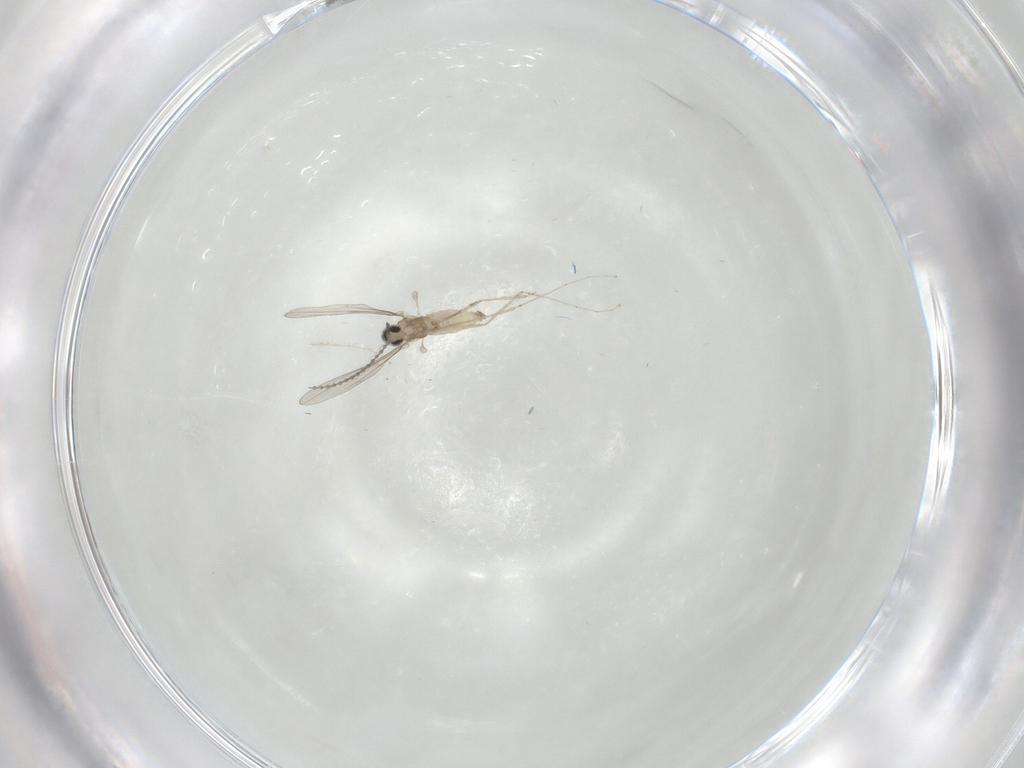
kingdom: Animalia
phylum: Arthropoda
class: Insecta
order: Diptera
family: Cecidomyiidae
